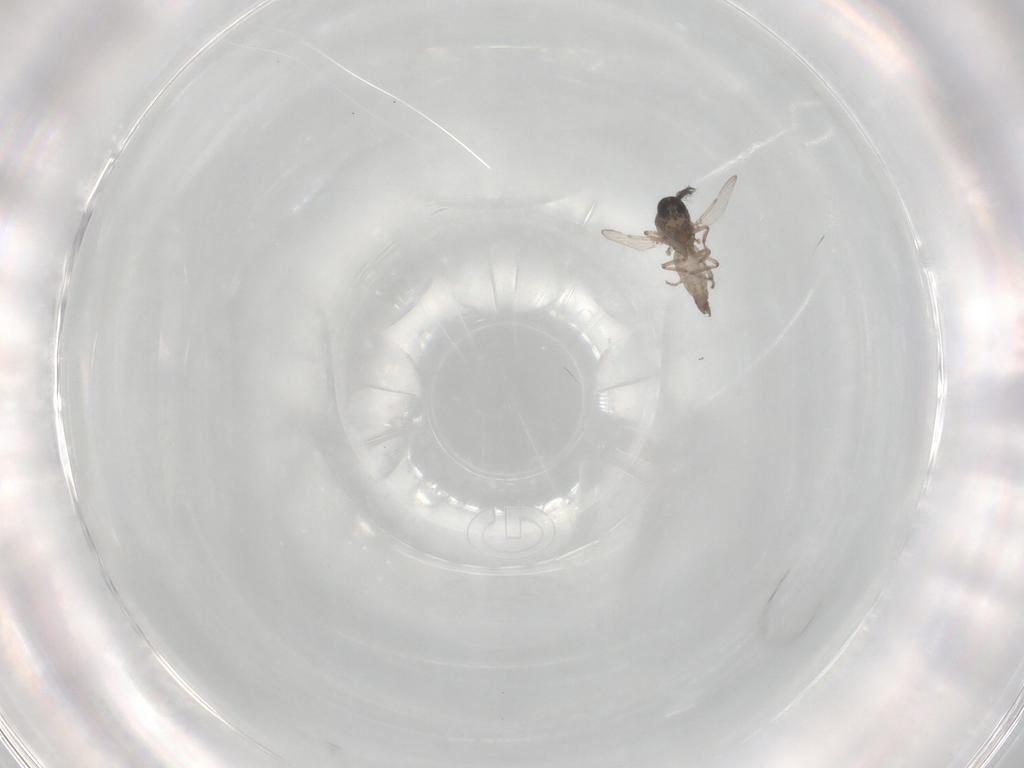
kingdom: Animalia
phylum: Arthropoda
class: Insecta
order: Diptera
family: Ceratopogonidae
